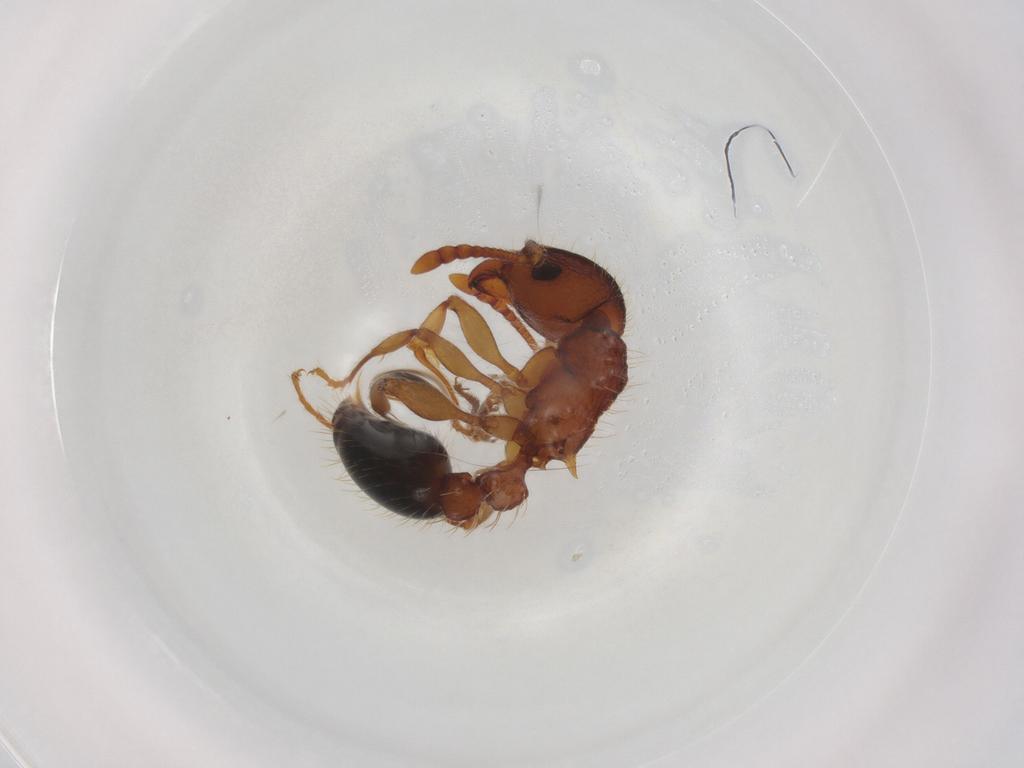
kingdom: Animalia
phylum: Arthropoda
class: Insecta
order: Hymenoptera
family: Formicidae
